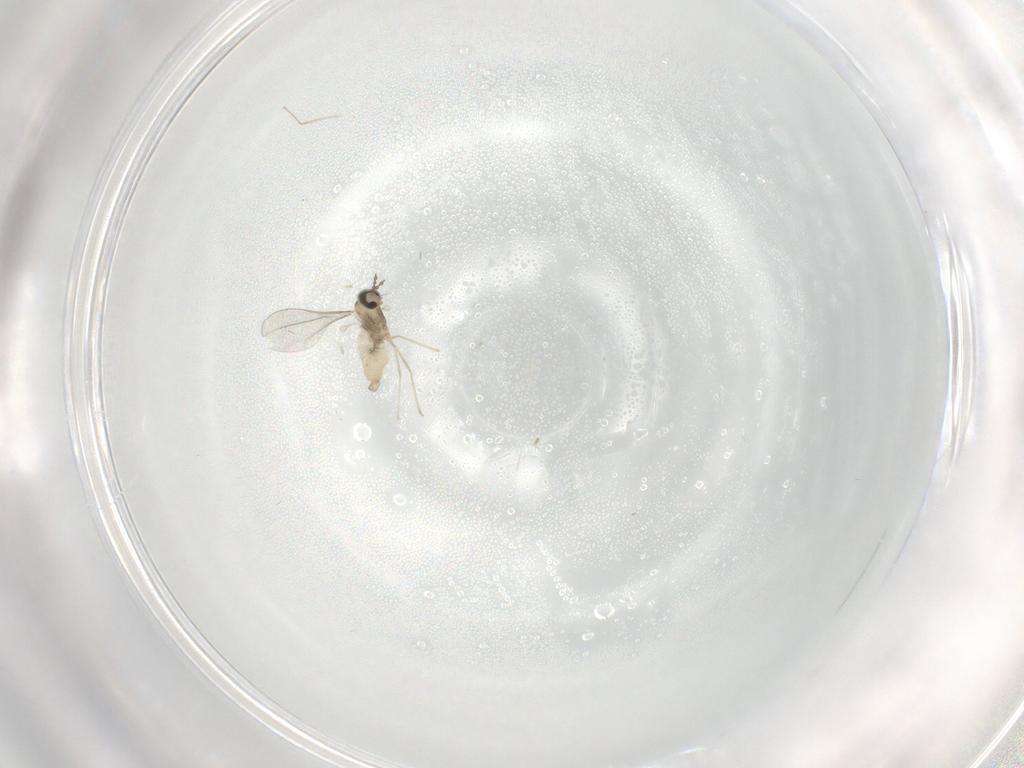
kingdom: Animalia
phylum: Arthropoda
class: Insecta
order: Diptera
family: Cecidomyiidae
